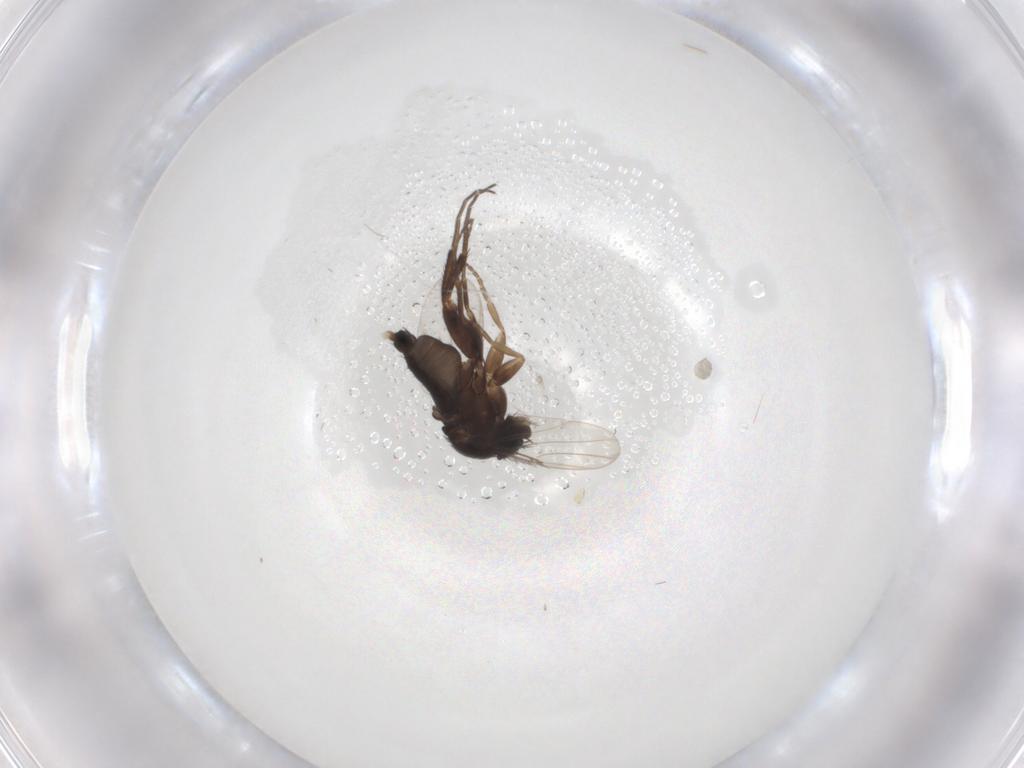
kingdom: Animalia
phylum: Arthropoda
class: Insecta
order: Diptera
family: Phoridae
